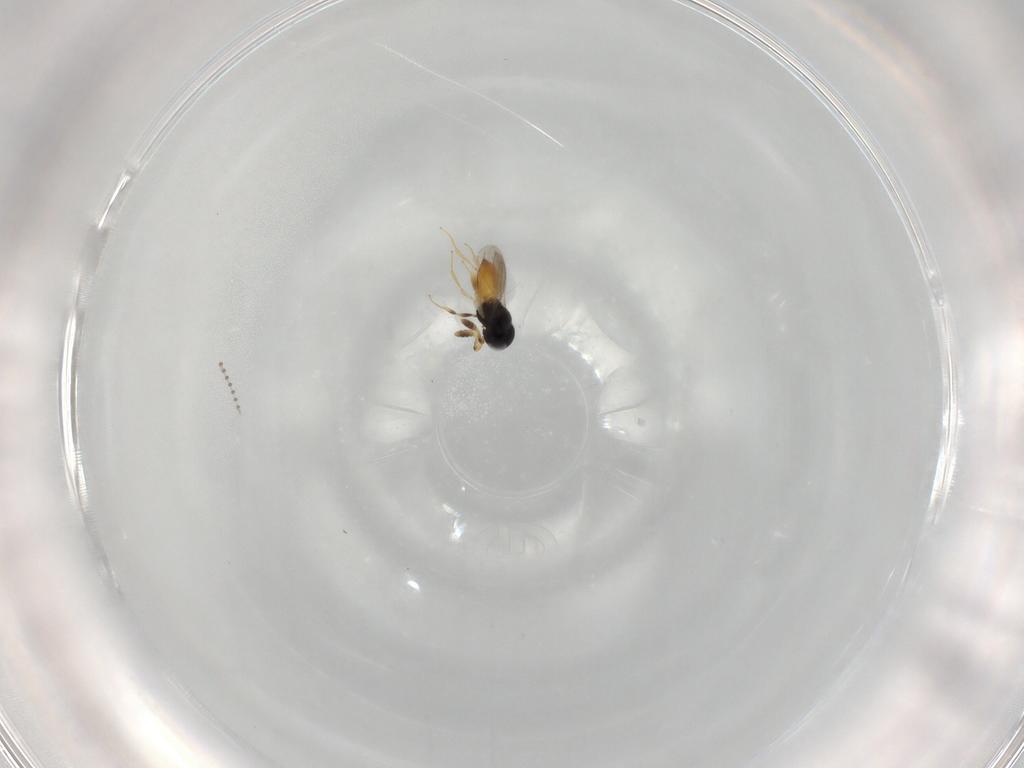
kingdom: Animalia
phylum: Arthropoda
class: Insecta
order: Hymenoptera
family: Scelionidae
